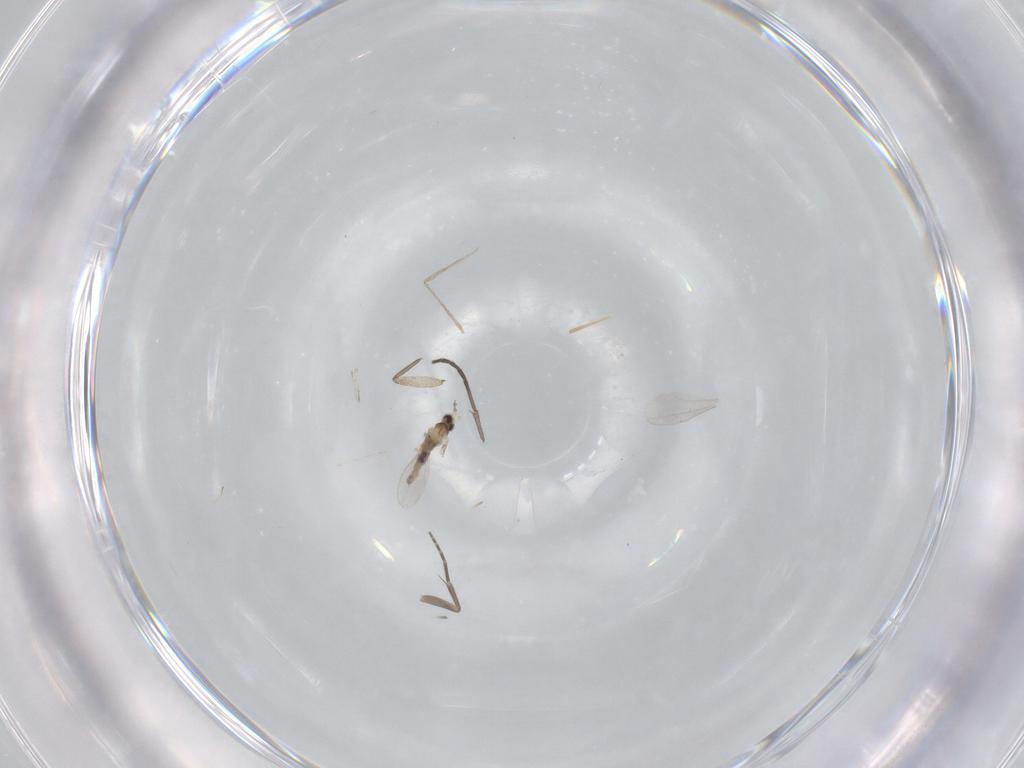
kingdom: Animalia
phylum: Arthropoda
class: Insecta
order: Diptera
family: Cecidomyiidae
